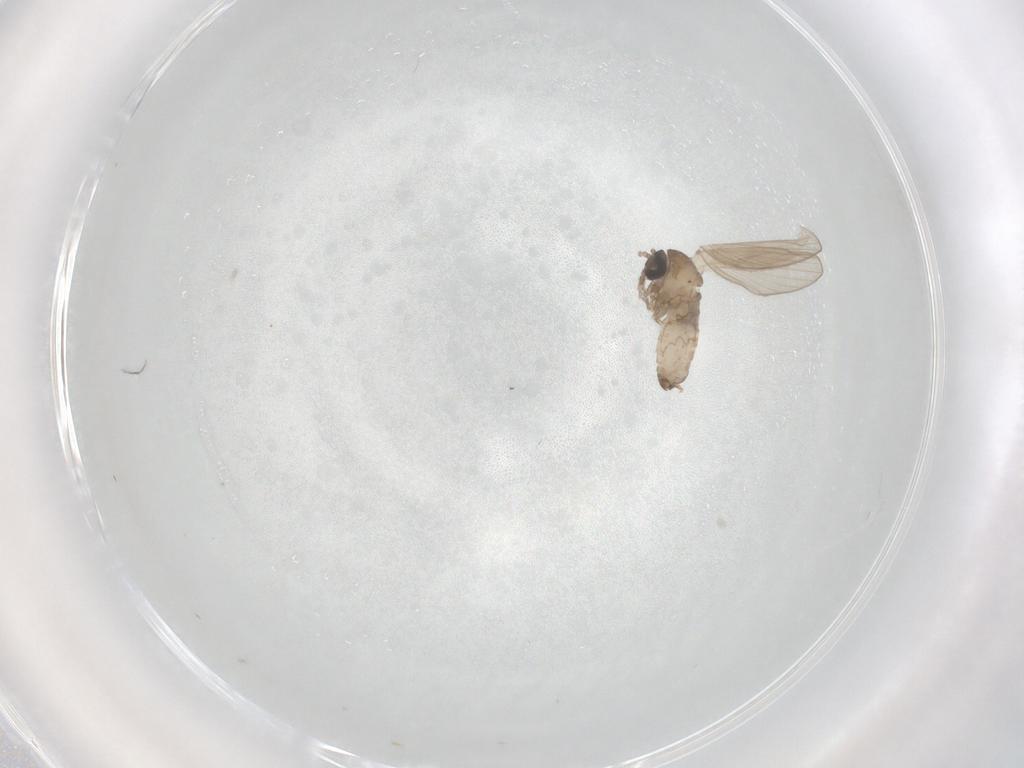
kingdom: Animalia
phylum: Arthropoda
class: Insecta
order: Diptera
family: Psychodidae
